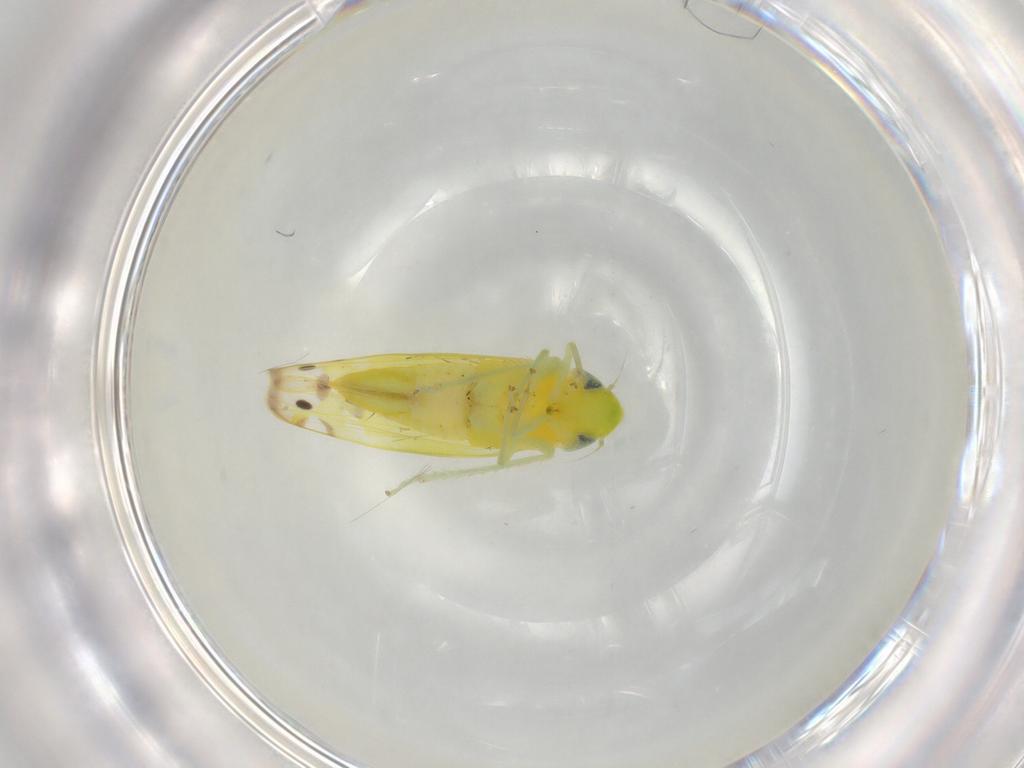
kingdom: Animalia
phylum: Arthropoda
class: Insecta
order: Hemiptera
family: Cicadellidae
